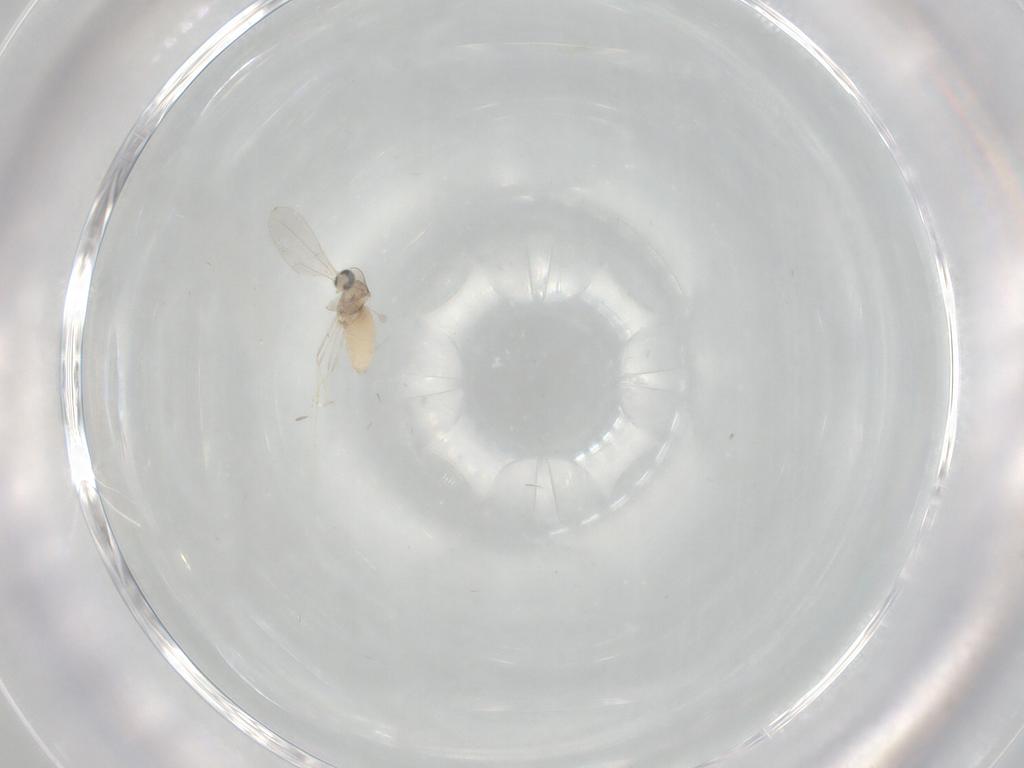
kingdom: Animalia
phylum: Arthropoda
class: Insecta
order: Diptera
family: Cecidomyiidae
